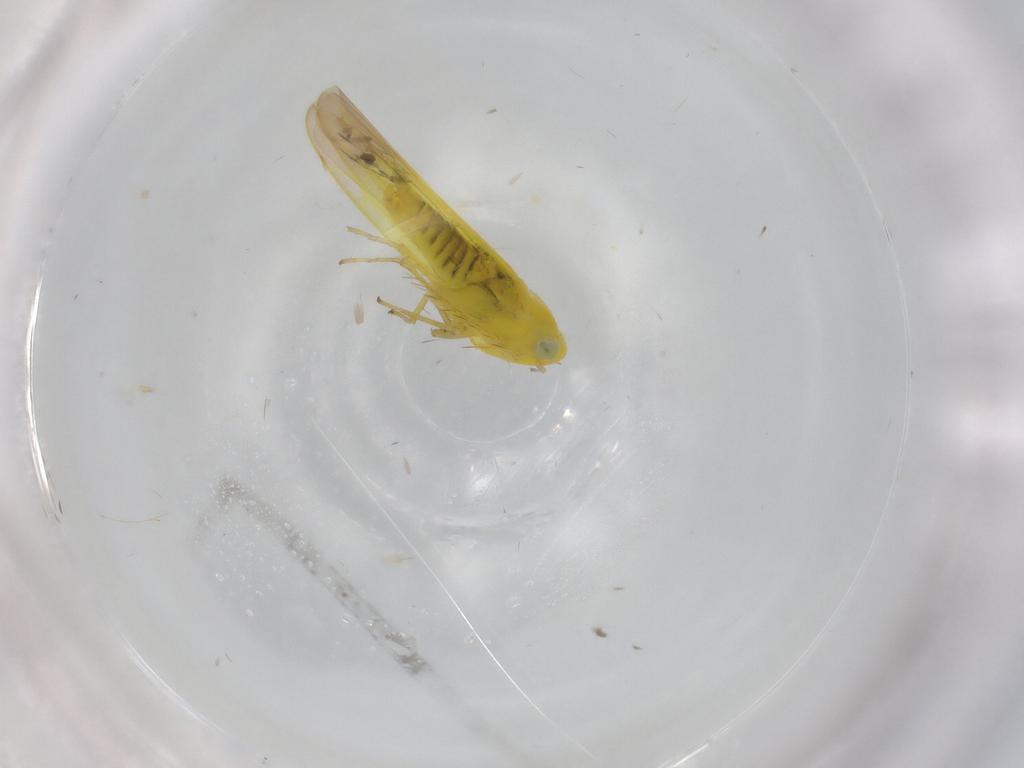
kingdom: Animalia
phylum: Arthropoda
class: Insecta
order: Hemiptera
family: Cicadellidae
